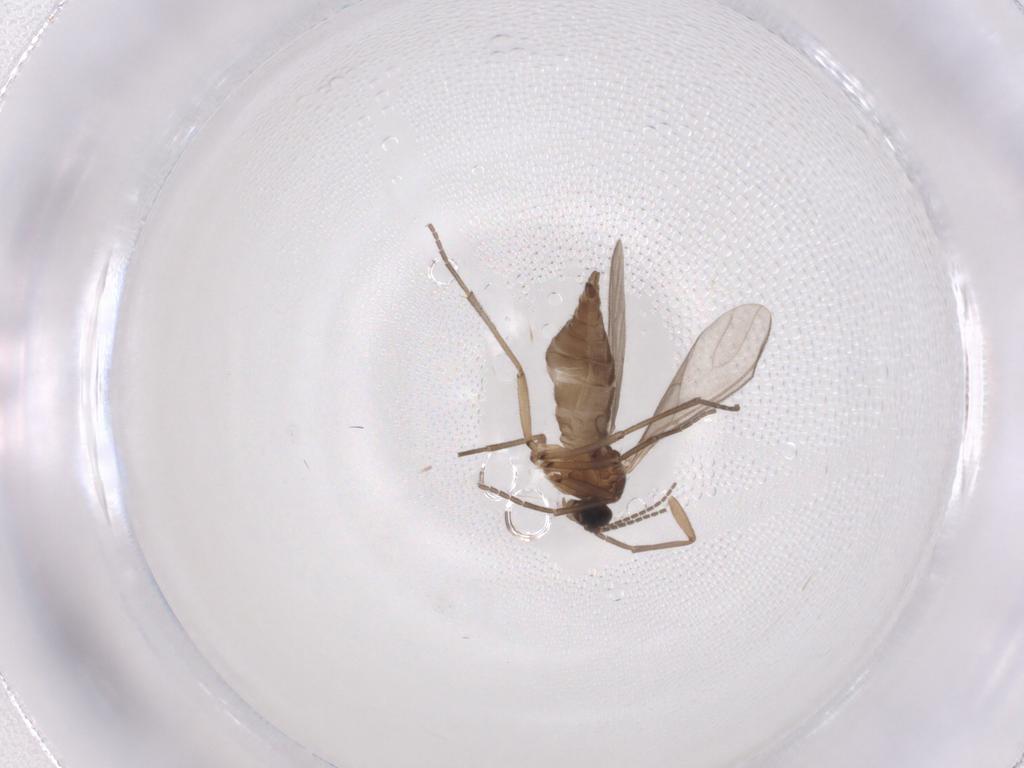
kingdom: Animalia
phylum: Arthropoda
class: Insecta
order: Diptera
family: Sciaridae
